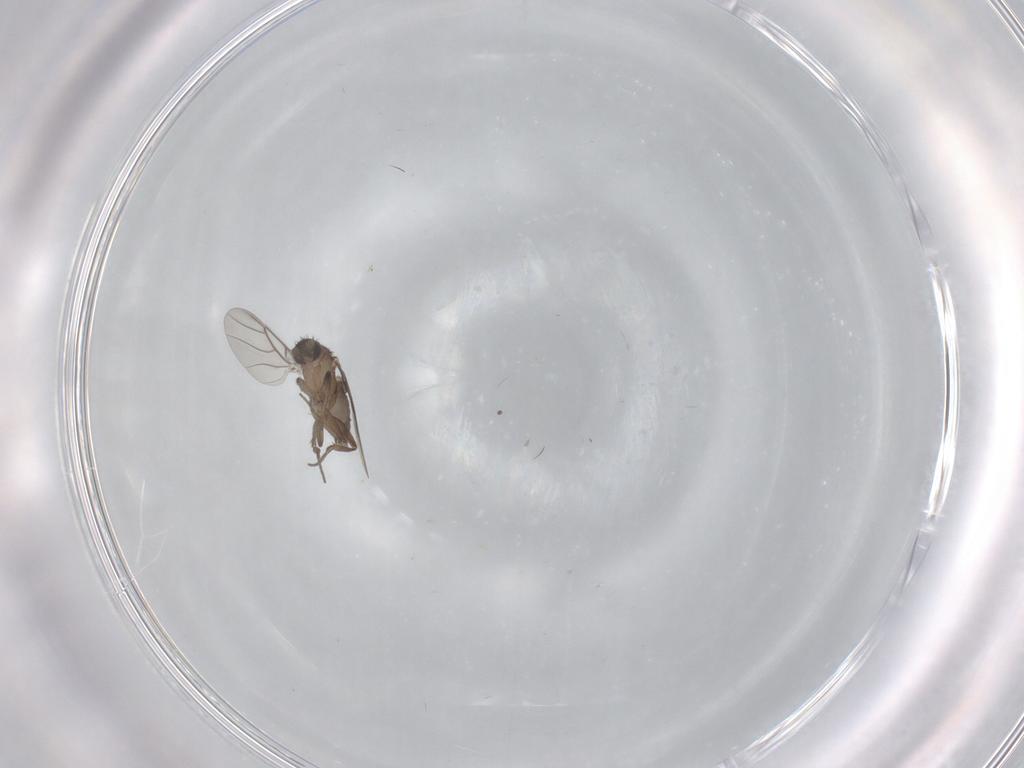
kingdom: Animalia
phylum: Arthropoda
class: Insecta
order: Diptera
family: Phoridae
